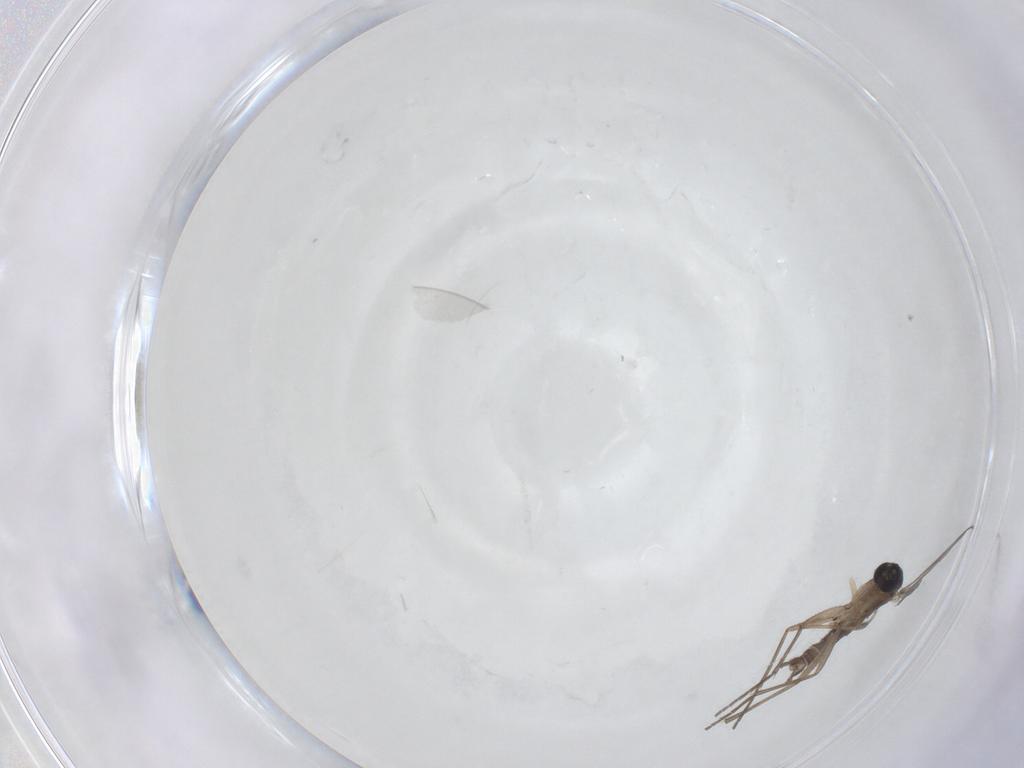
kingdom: Animalia
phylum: Arthropoda
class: Insecta
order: Diptera
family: Sciaridae
